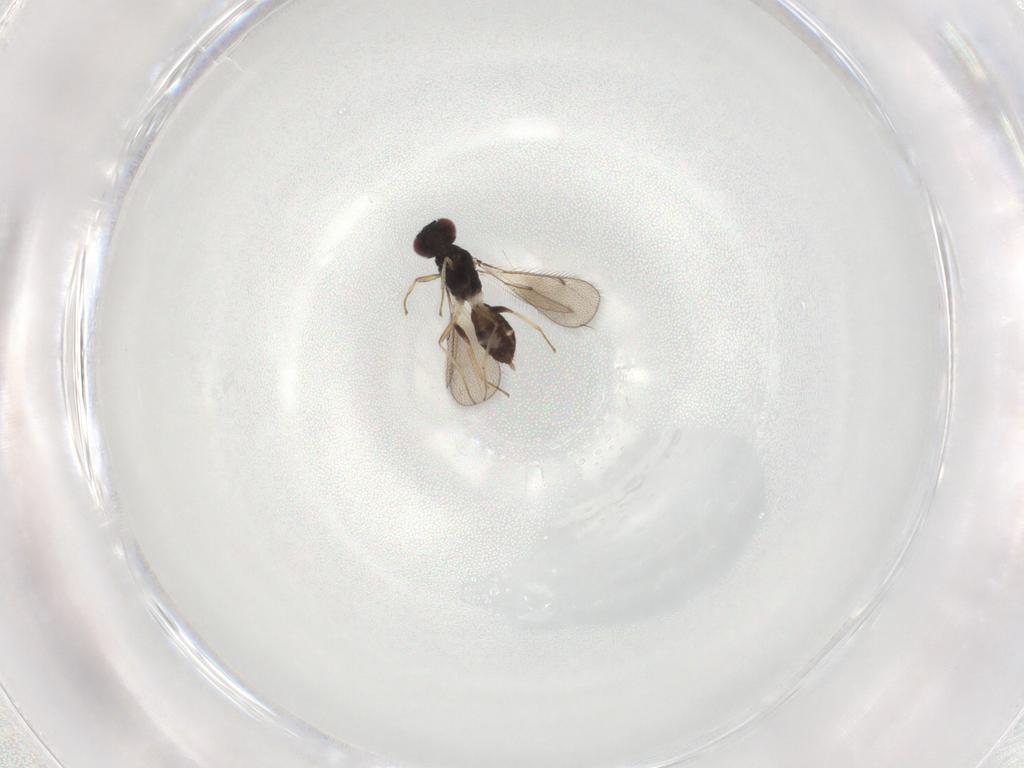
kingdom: Animalia
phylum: Arthropoda
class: Insecta
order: Hymenoptera
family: Eulophidae
